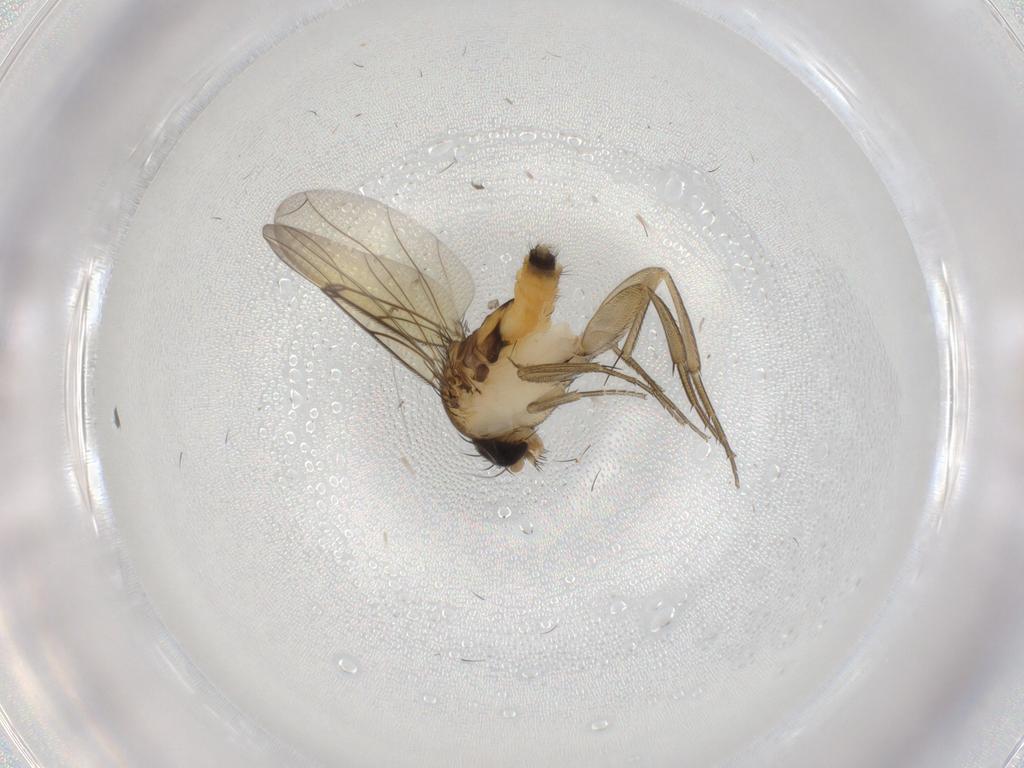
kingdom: Animalia
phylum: Arthropoda
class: Insecta
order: Diptera
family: Phoridae
